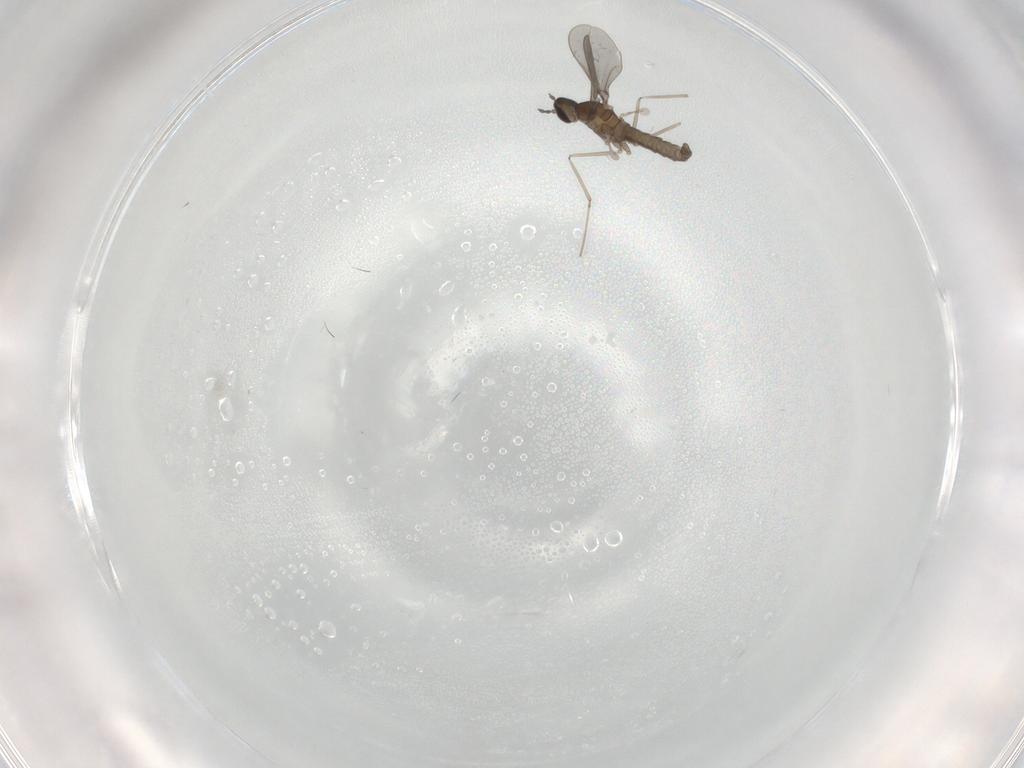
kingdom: Animalia
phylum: Arthropoda
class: Insecta
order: Diptera
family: Chironomidae
